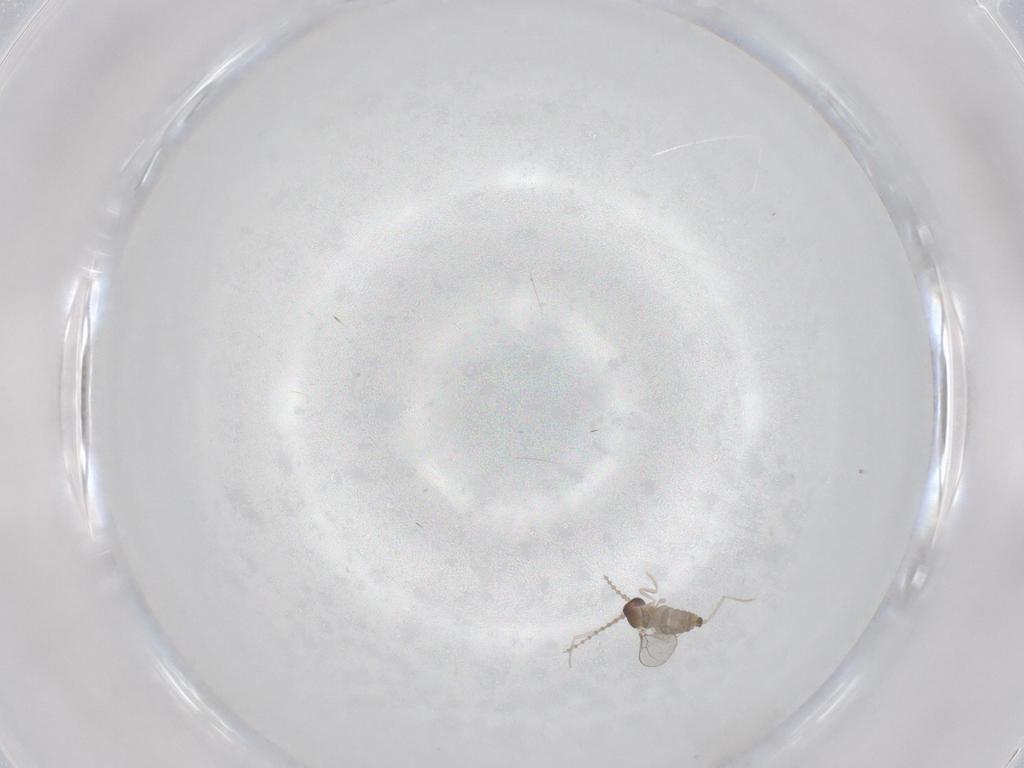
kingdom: Animalia
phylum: Arthropoda
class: Insecta
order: Diptera
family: Cecidomyiidae
